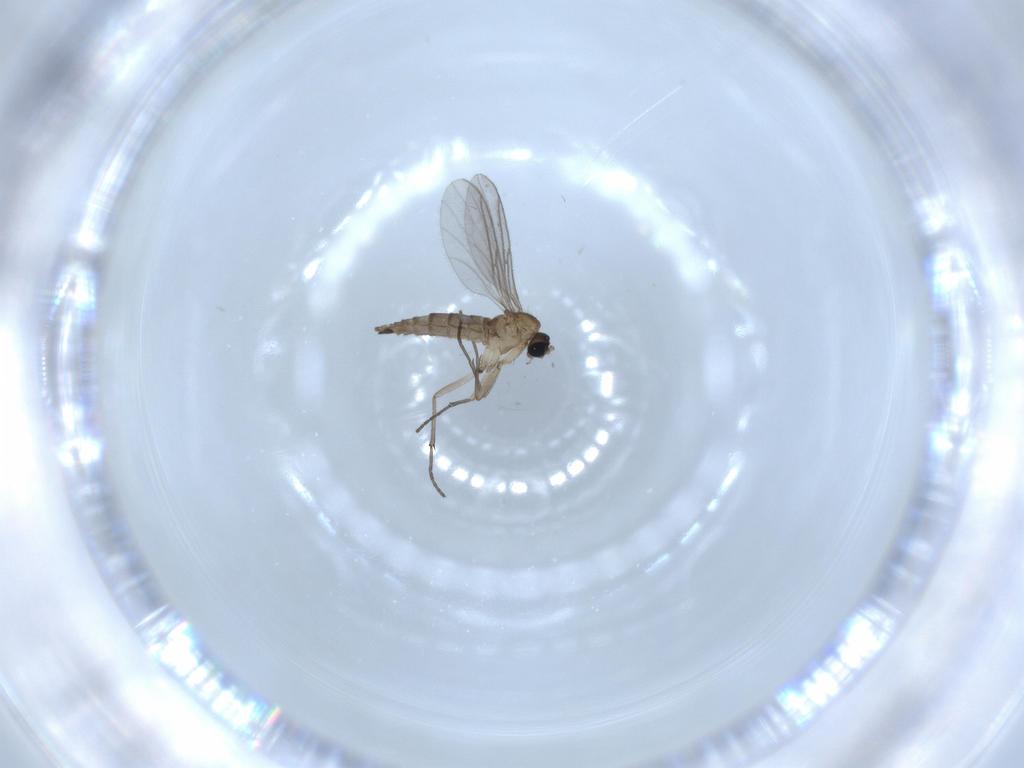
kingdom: Animalia
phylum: Arthropoda
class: Insecta
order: Diptera
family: Sciaridae
